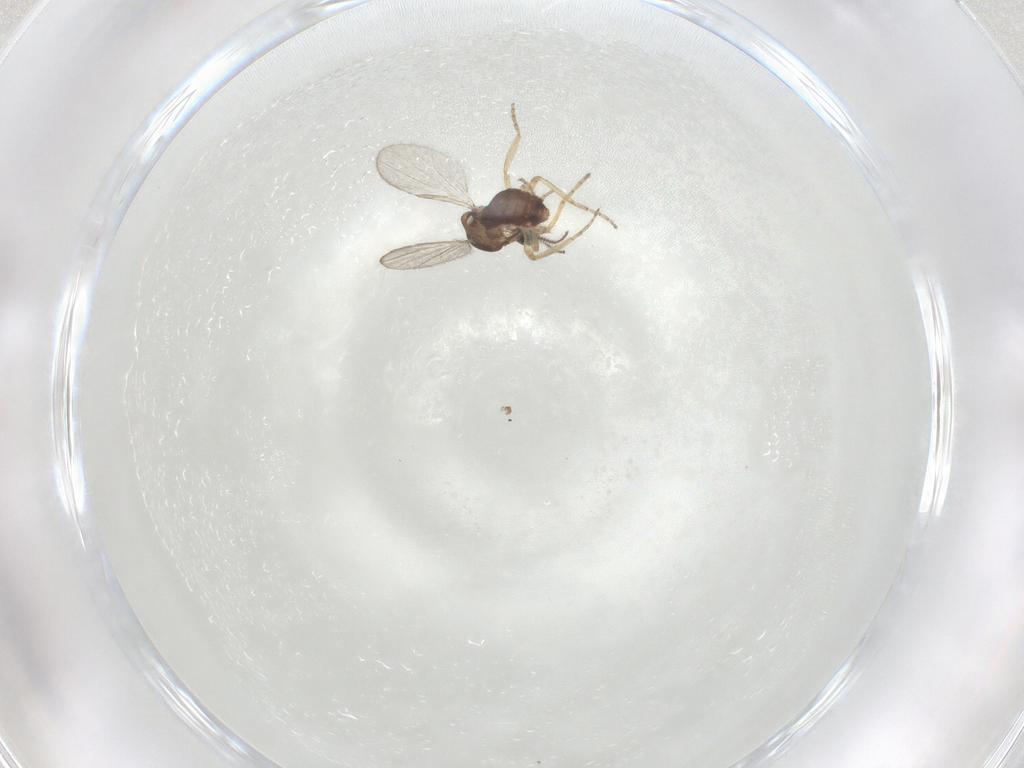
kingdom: Animalia
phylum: Arthropoda
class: Insecta
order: Diptera
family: Ceratopogonidae
